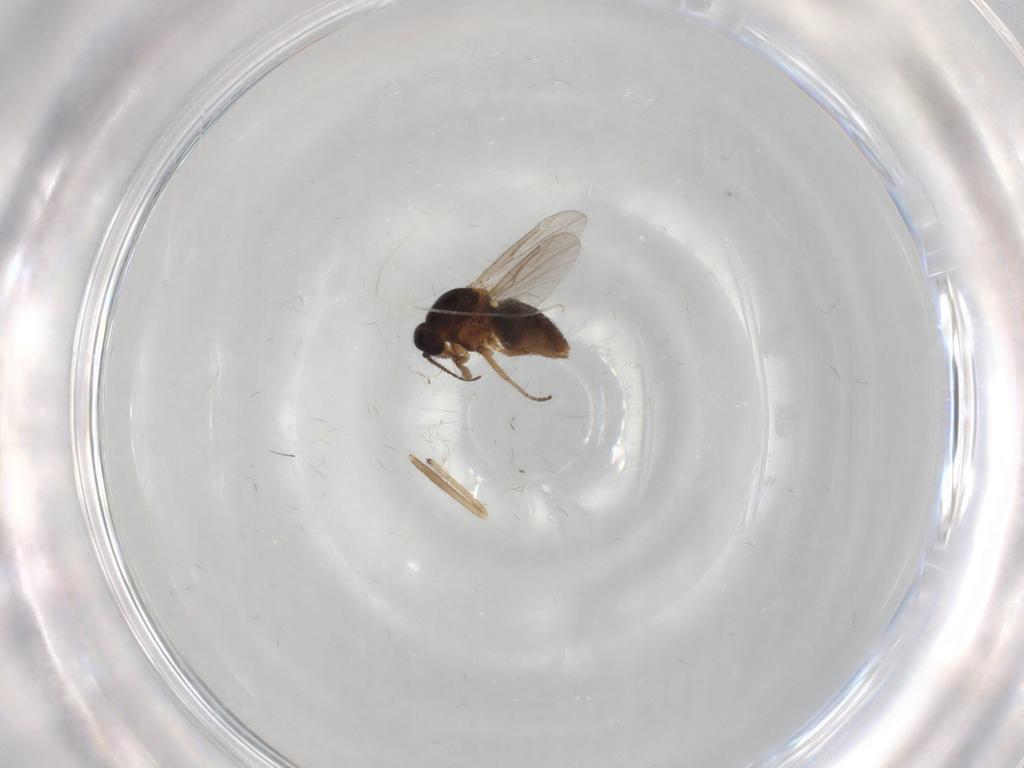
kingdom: Animalia
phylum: Arthropoda
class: Insecta
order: Diptera
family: Ceratopogonidae
